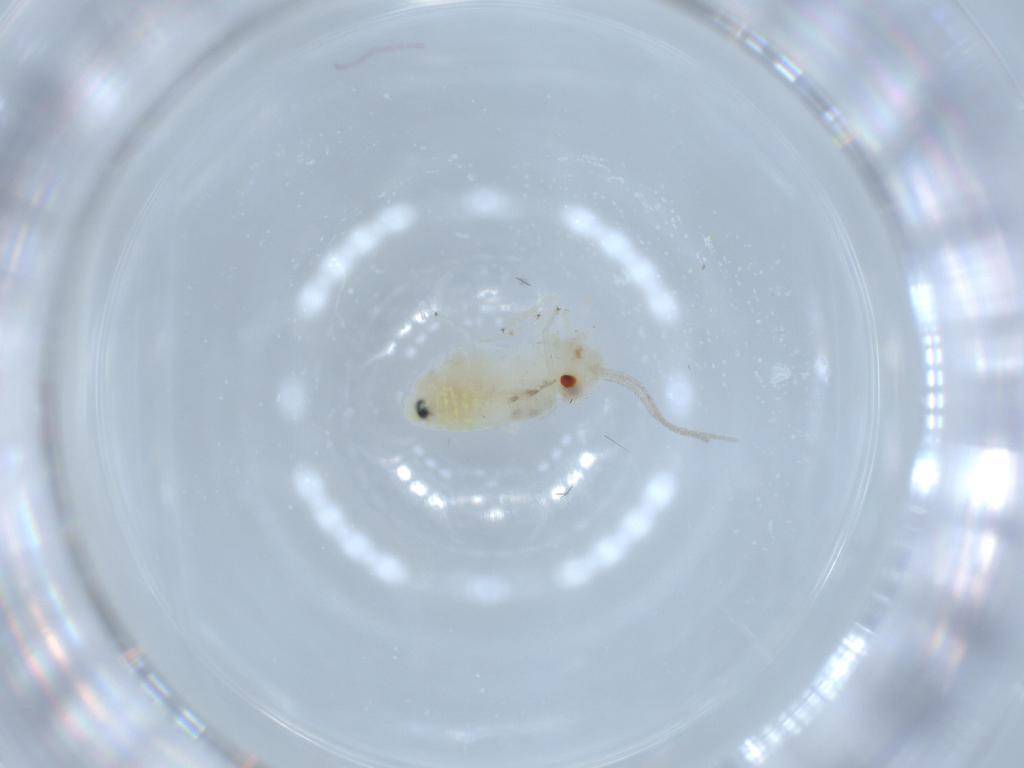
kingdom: Animalia
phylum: Arthropoda
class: Insecta
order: Psocodea
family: Caeciliusidae
